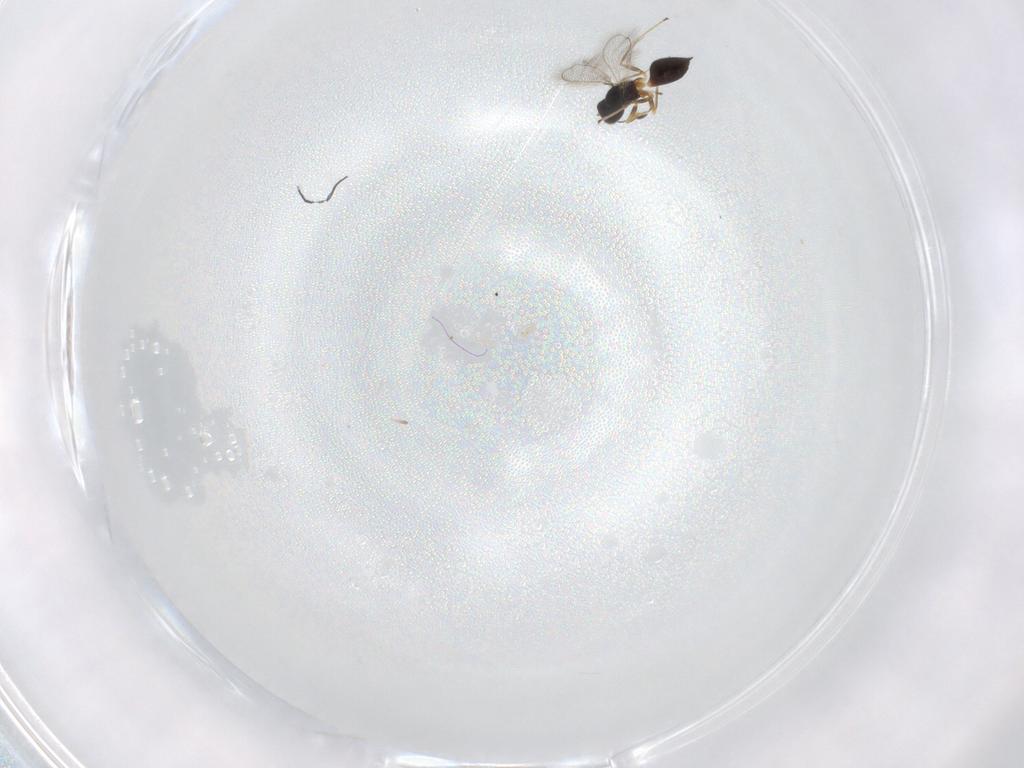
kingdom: Animalia
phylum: Arthropoda
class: Insecta
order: Hymenoptera
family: Mymaridae
